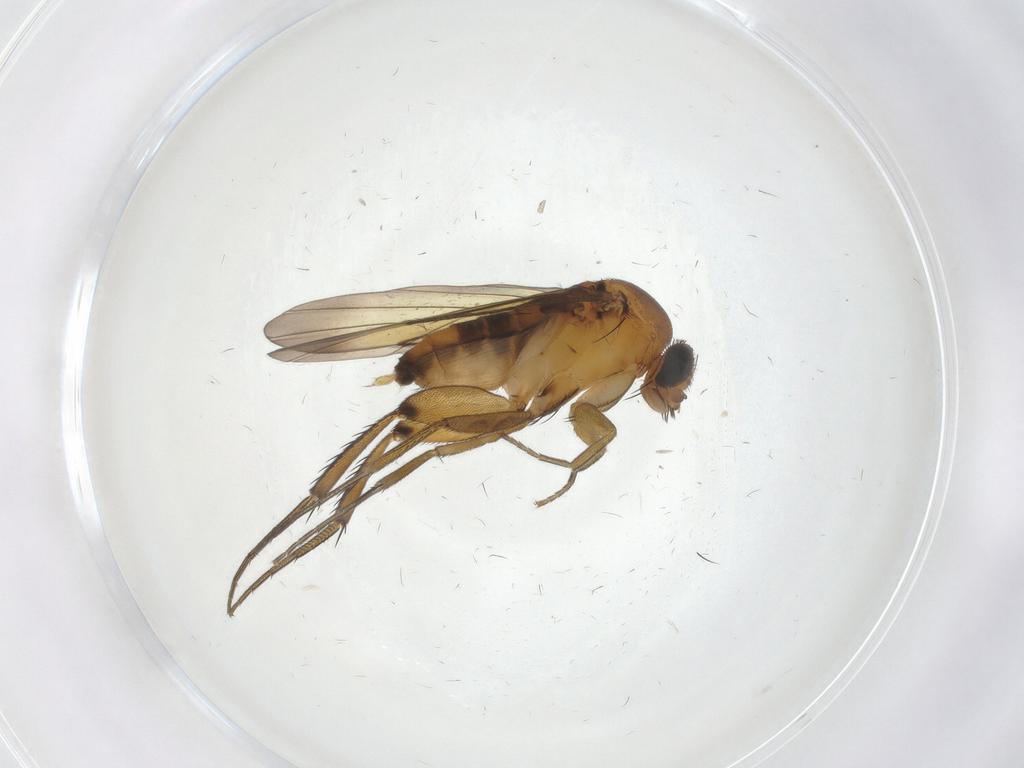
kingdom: Animalia
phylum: Arthropoda
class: Insecta
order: Diptera
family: Phoridae
